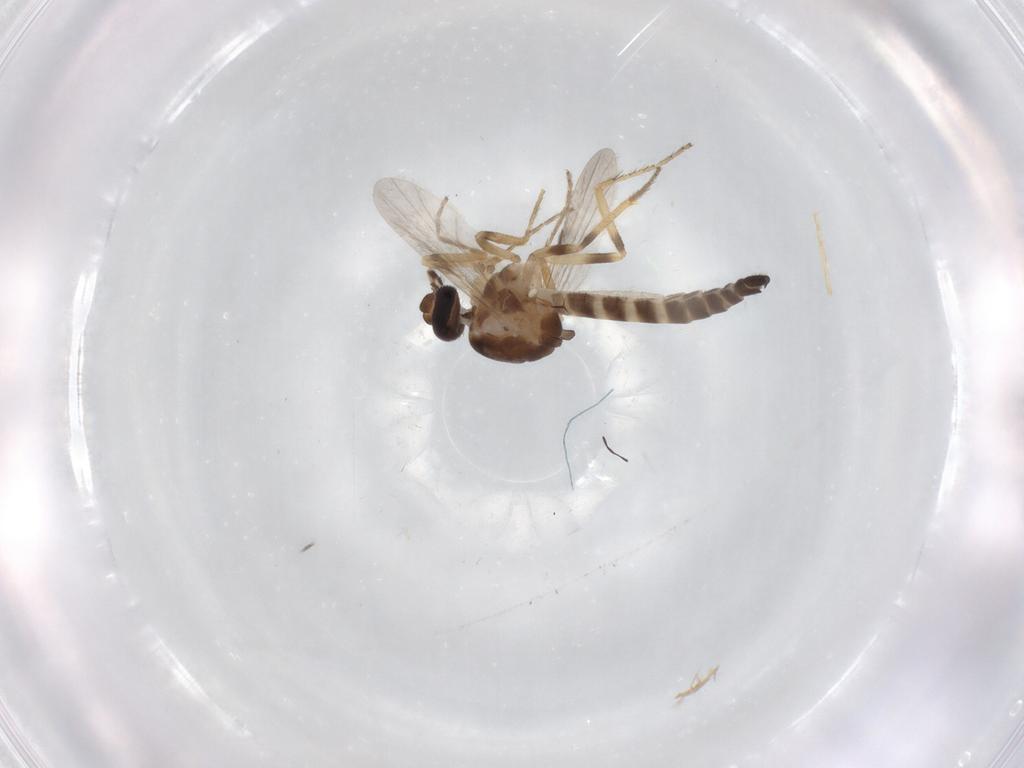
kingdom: Animalia
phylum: Arthropoda
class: Insecta
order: Diptera
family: Ceratopogonidae
